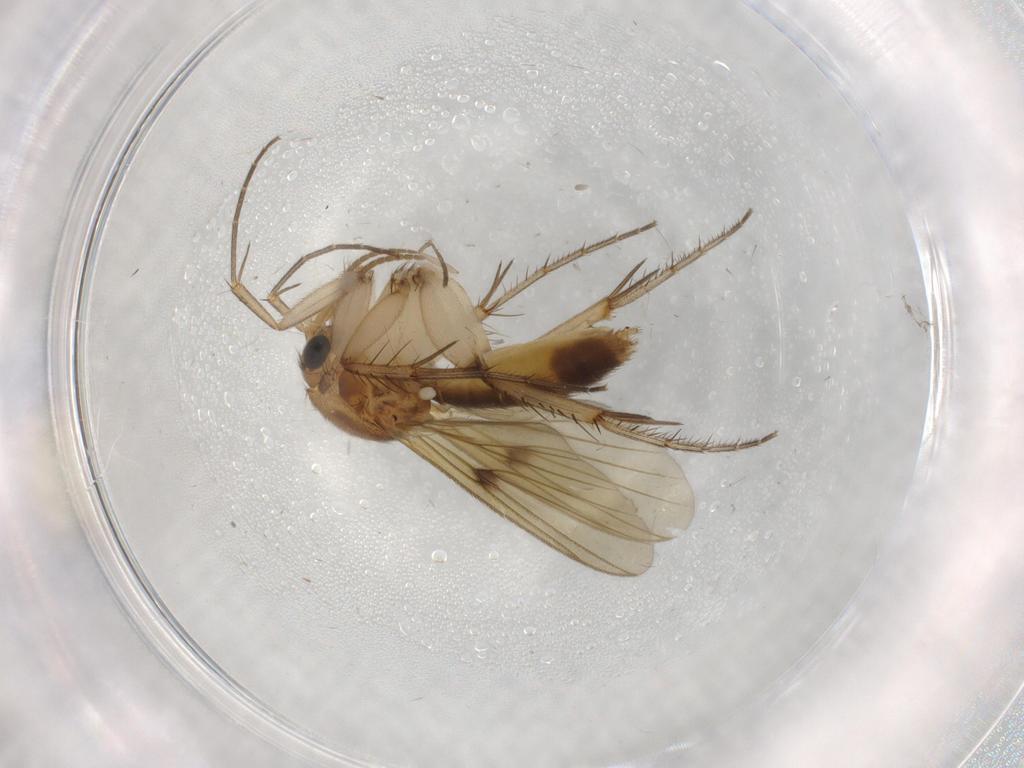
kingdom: Animalia
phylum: Arthropoda
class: Insecta
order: Diptera
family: Mycetophilidae
